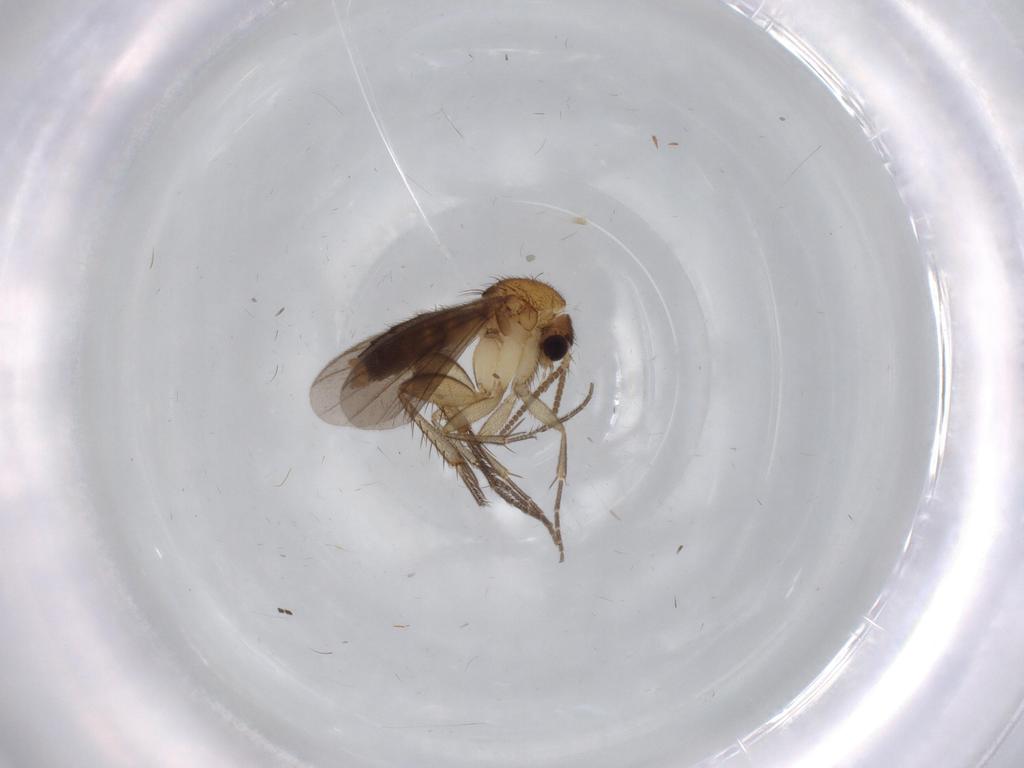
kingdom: Animalia
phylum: Arthropoda
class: Insecta
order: Diptera
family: Mycetophilidae
